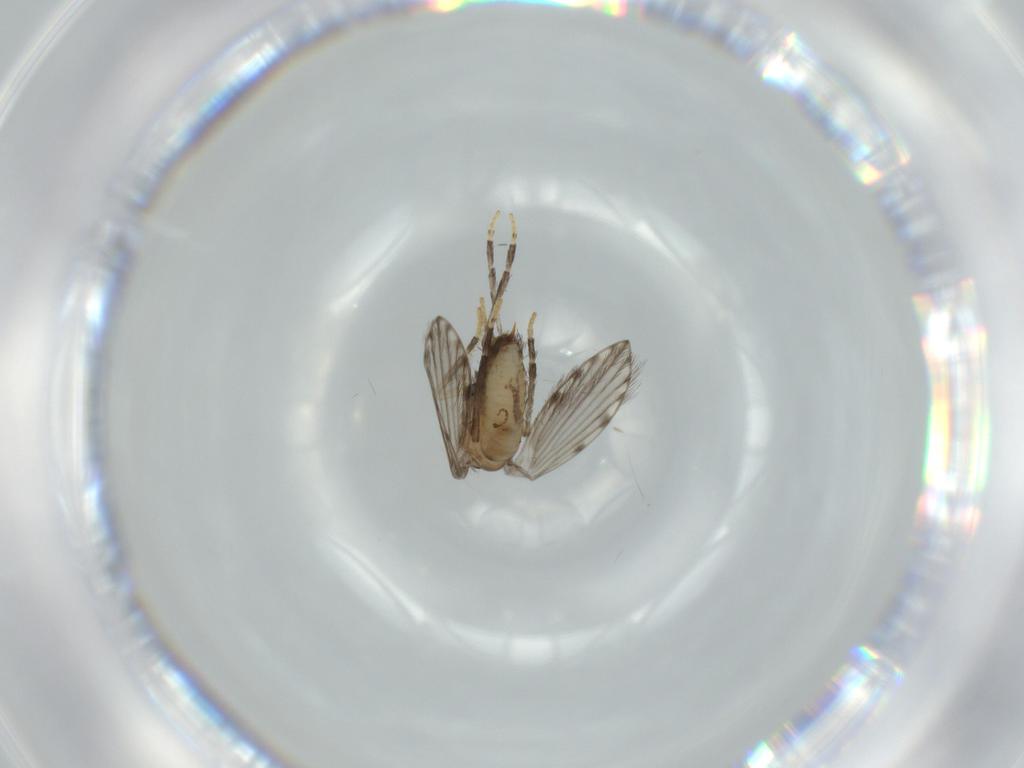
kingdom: Animalia
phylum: Arthropoda
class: Insecta
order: Diptera
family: Psychodidae
